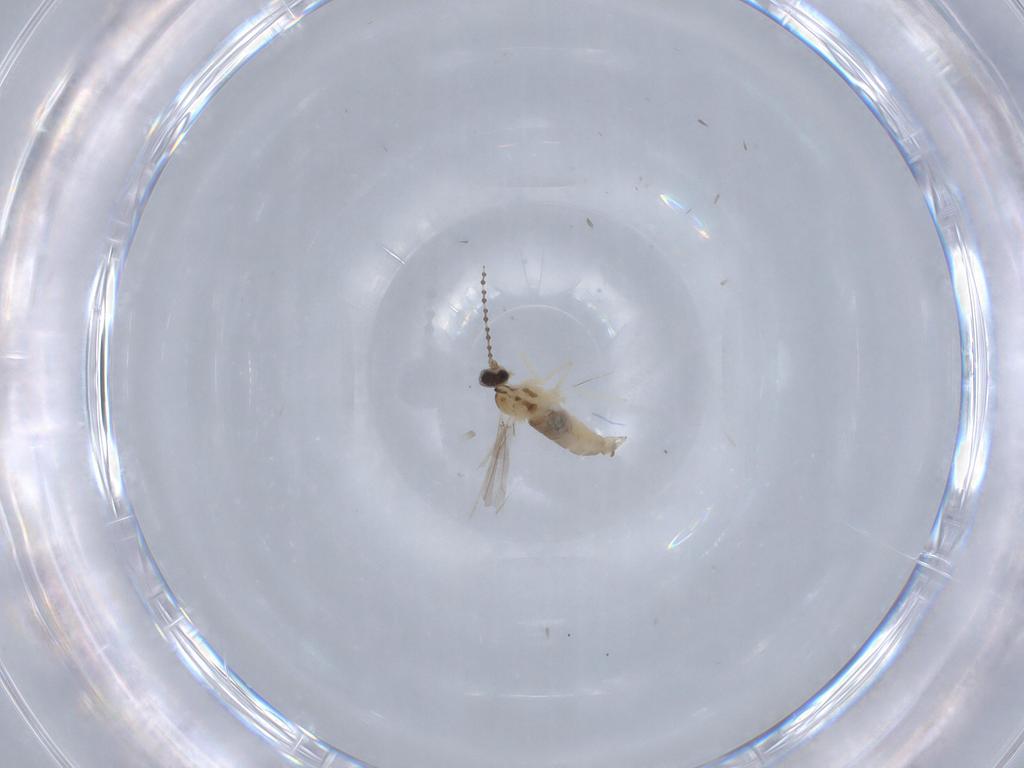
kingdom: Animalia
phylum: Arthropoda
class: Insecta
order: Diptera
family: Cecidomyiidae
